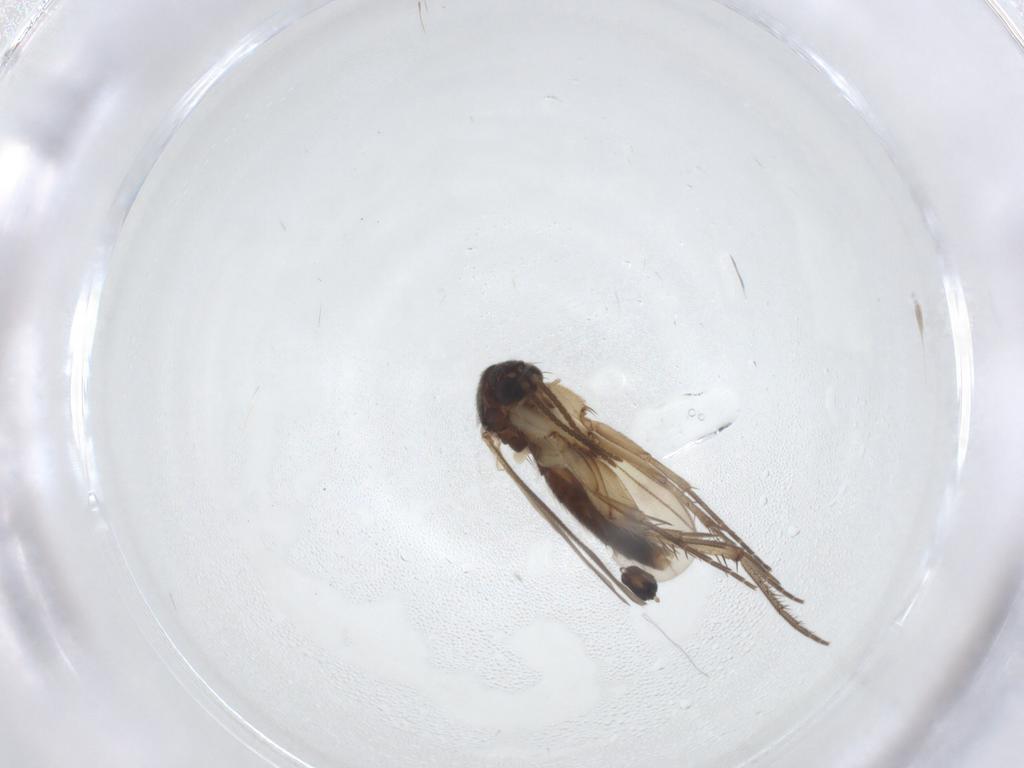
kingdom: Animalia
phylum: Arthropoda
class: Insecta
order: Diptera
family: Mycetophilidae
